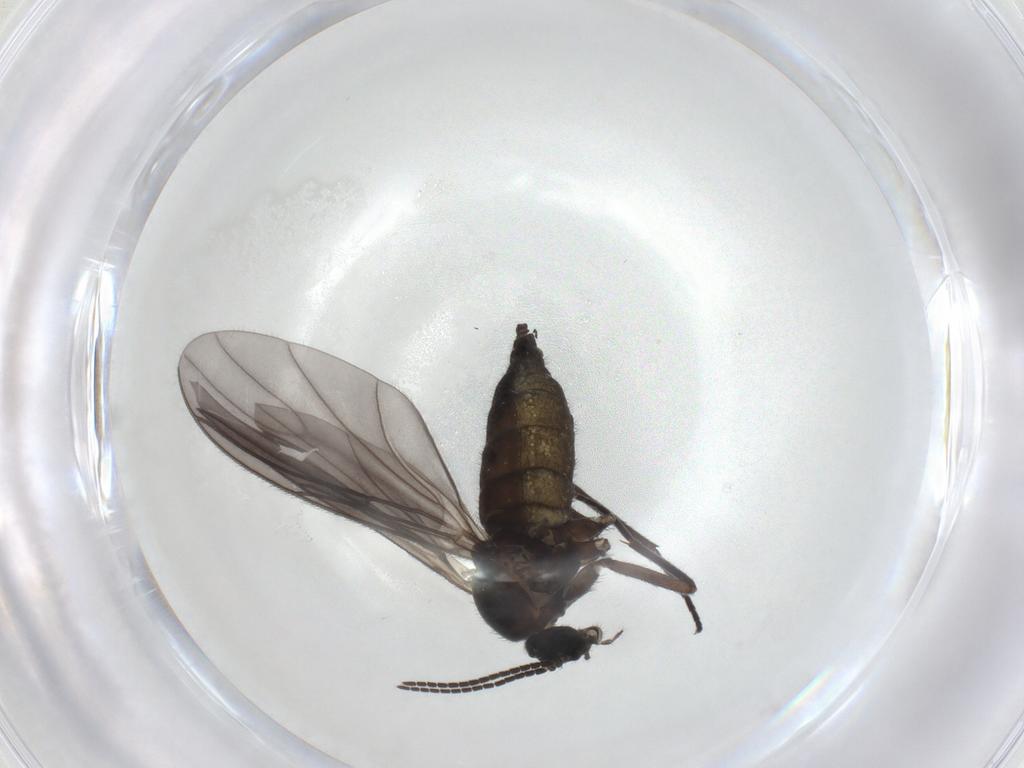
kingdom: Animalia
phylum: Arthropoda
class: Insecta
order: Diptera
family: Sciaridae
